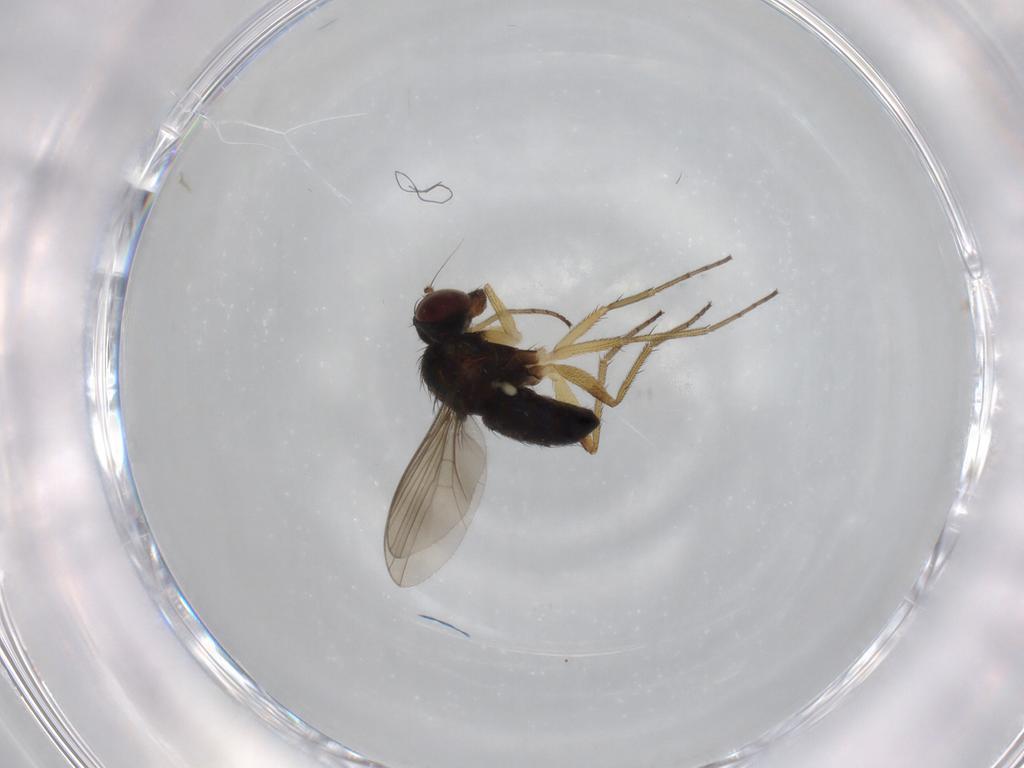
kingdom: Animalia
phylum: Arthropoda
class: Insecta
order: Diptera
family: Dolichopodidae
